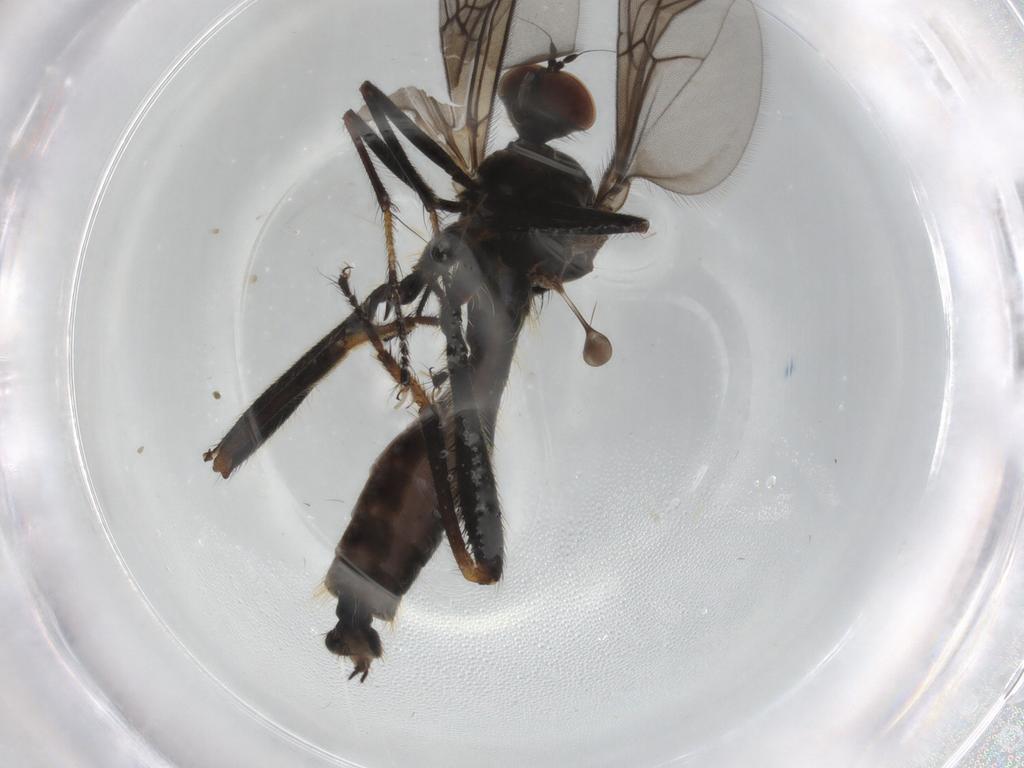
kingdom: Animalia
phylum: Arthropoda
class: Insecta
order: Diptera
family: Hybotidae
